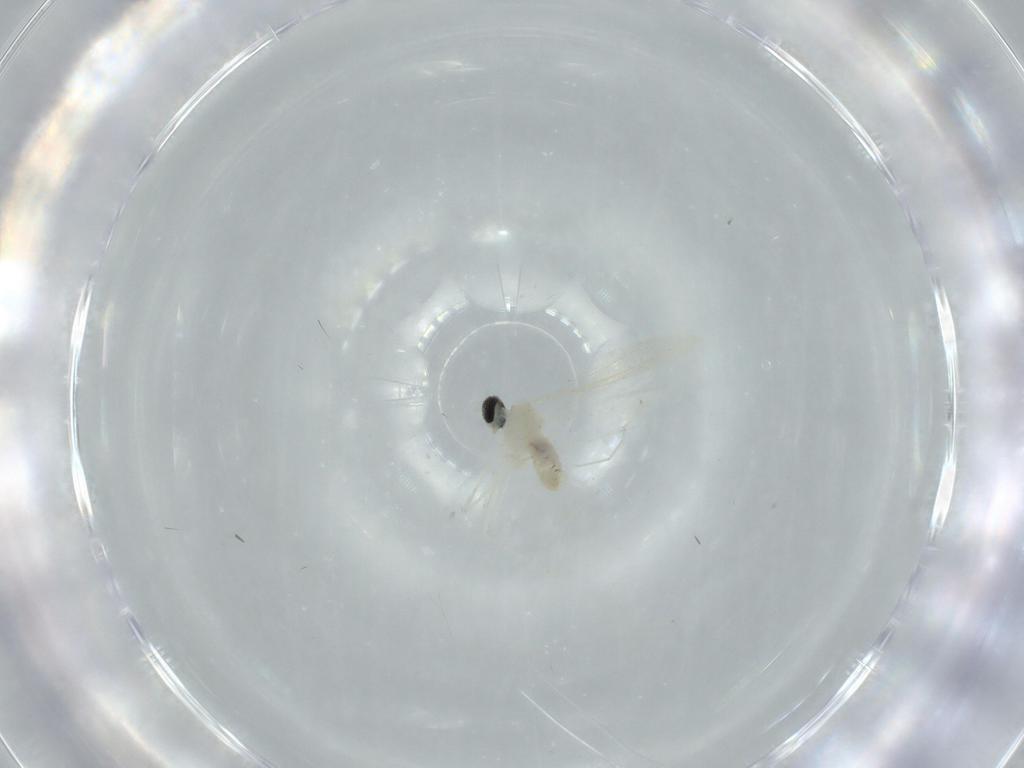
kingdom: Animalia
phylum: Arthropoda
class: Insecta
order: Diptera
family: Cecidomyiidae
